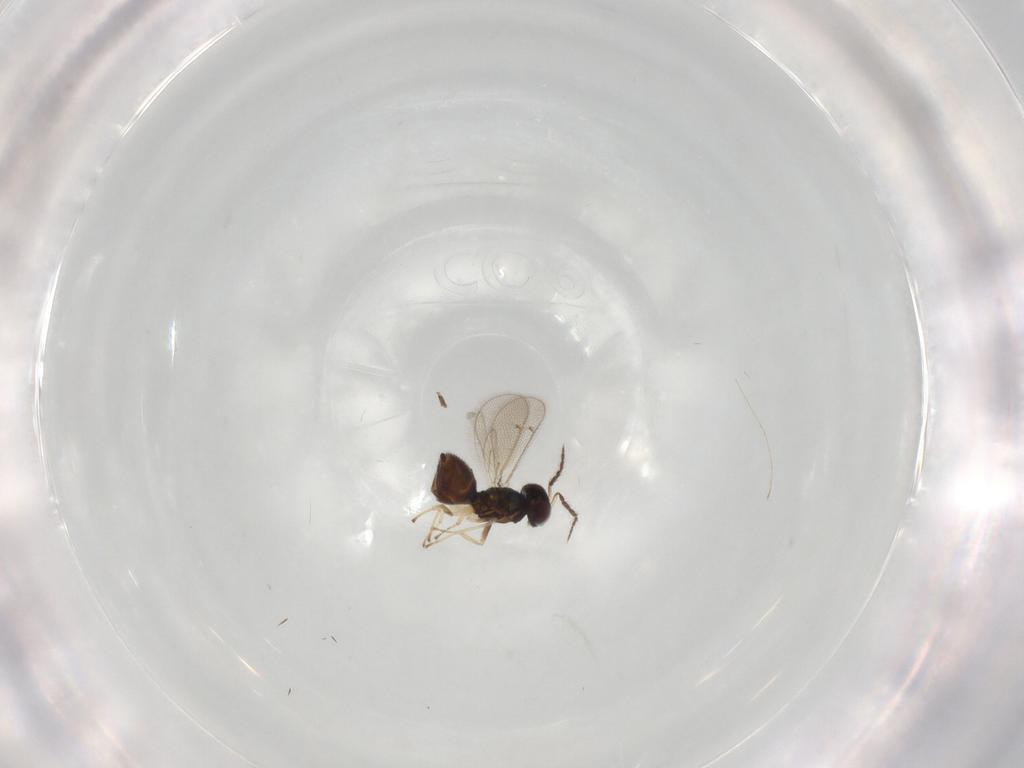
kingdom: Animalia
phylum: Arthropoda
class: Insecta
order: Hymenoptera
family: Eulophidae
